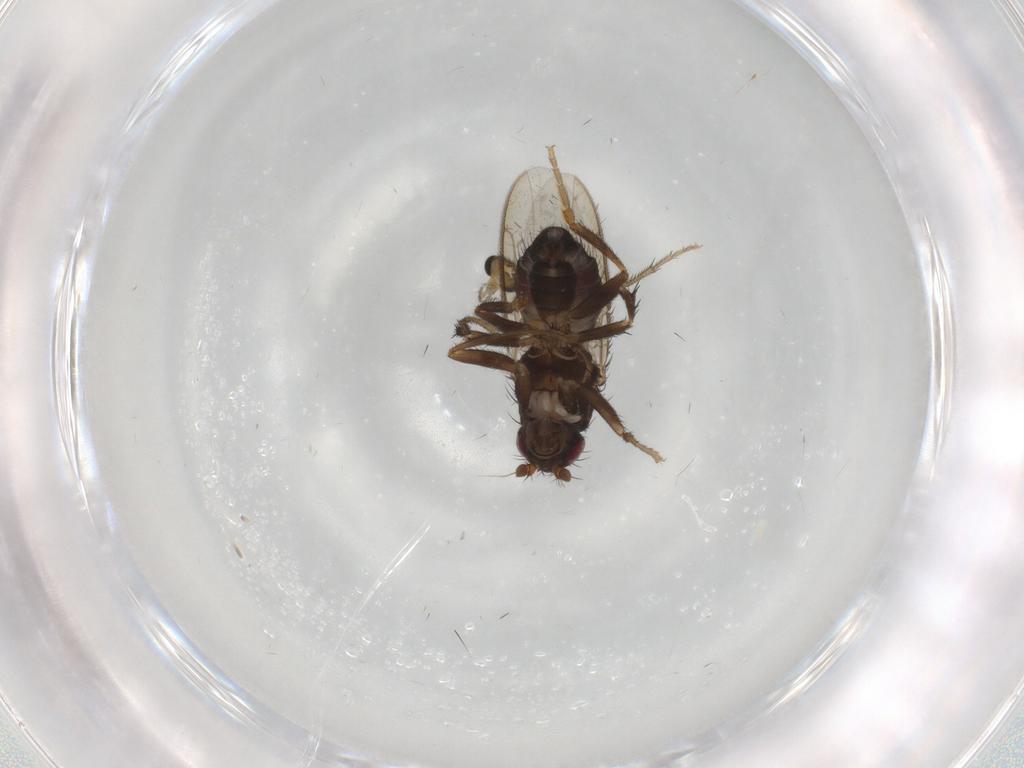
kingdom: Animalia
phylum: Arthropoda
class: Insecta
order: Diptera
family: Sphaeroceridae
